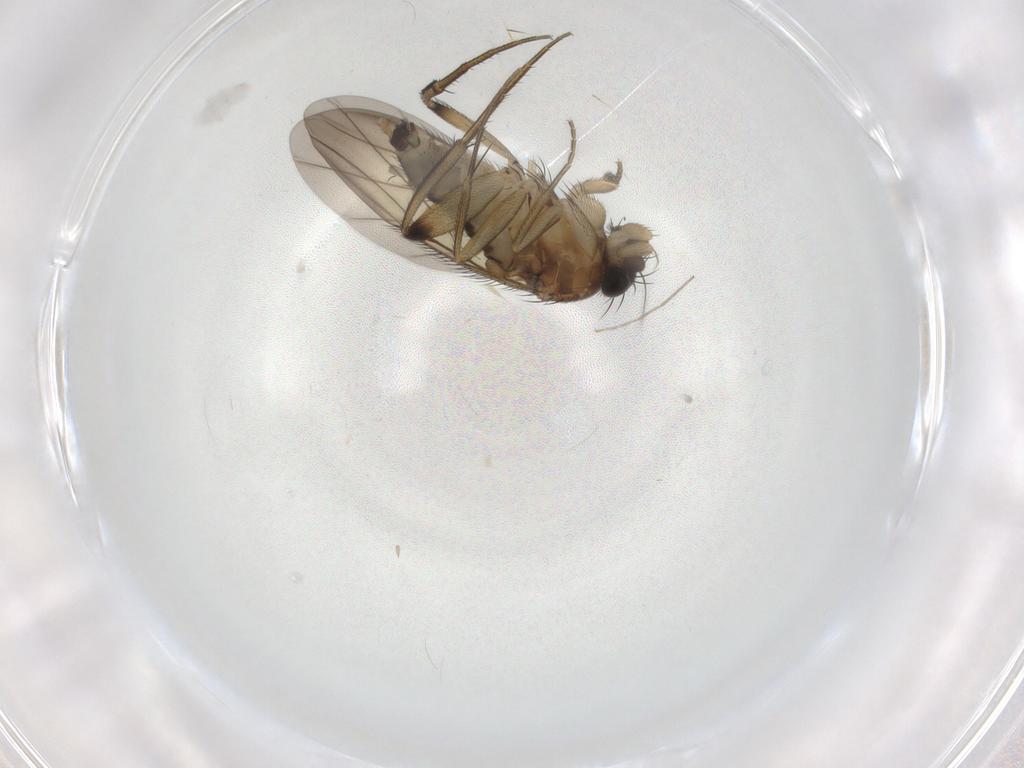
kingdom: Animalia
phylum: Arthropoda
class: Insecta
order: Diptera
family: Phoridae
